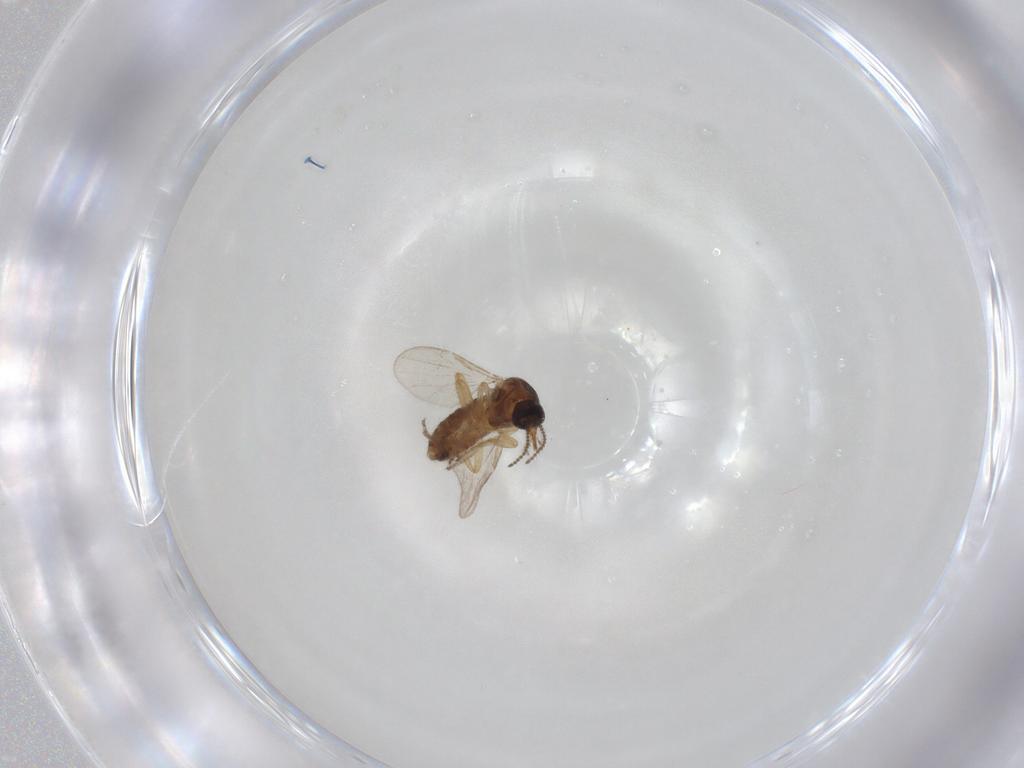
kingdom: Animalia
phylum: Arthropoda
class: Insecta
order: Diptera
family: Ceratopogonidae
